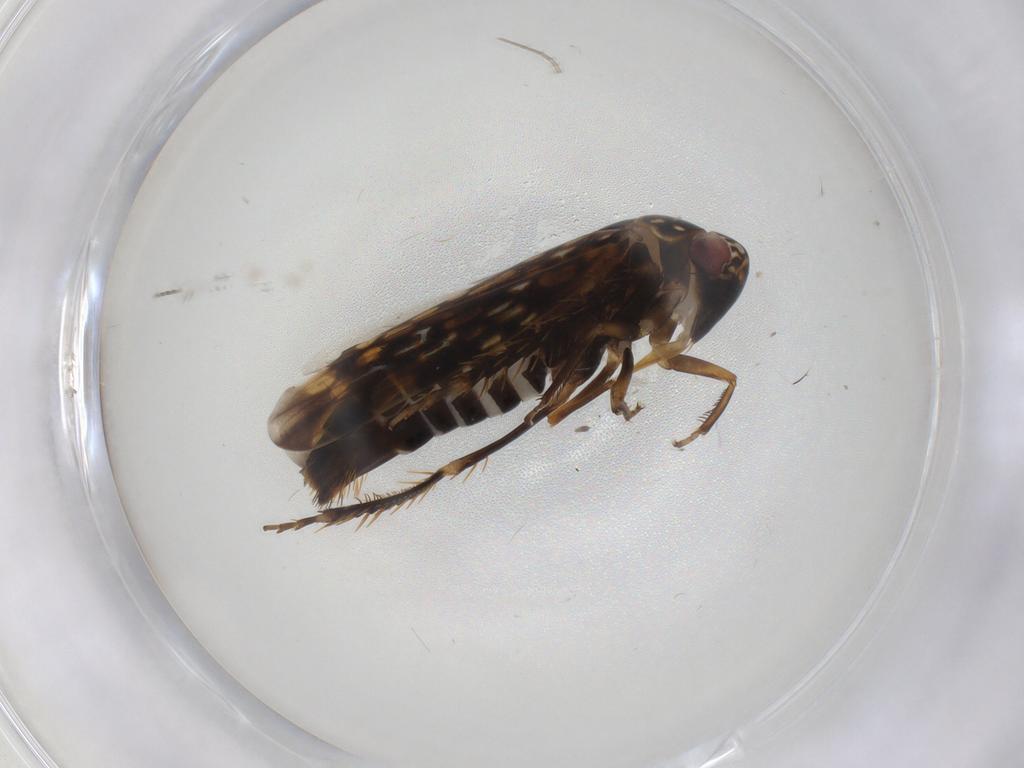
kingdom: Animalia
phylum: Arthropoda
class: Insecta
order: Hemiptera
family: Cicadellidae
